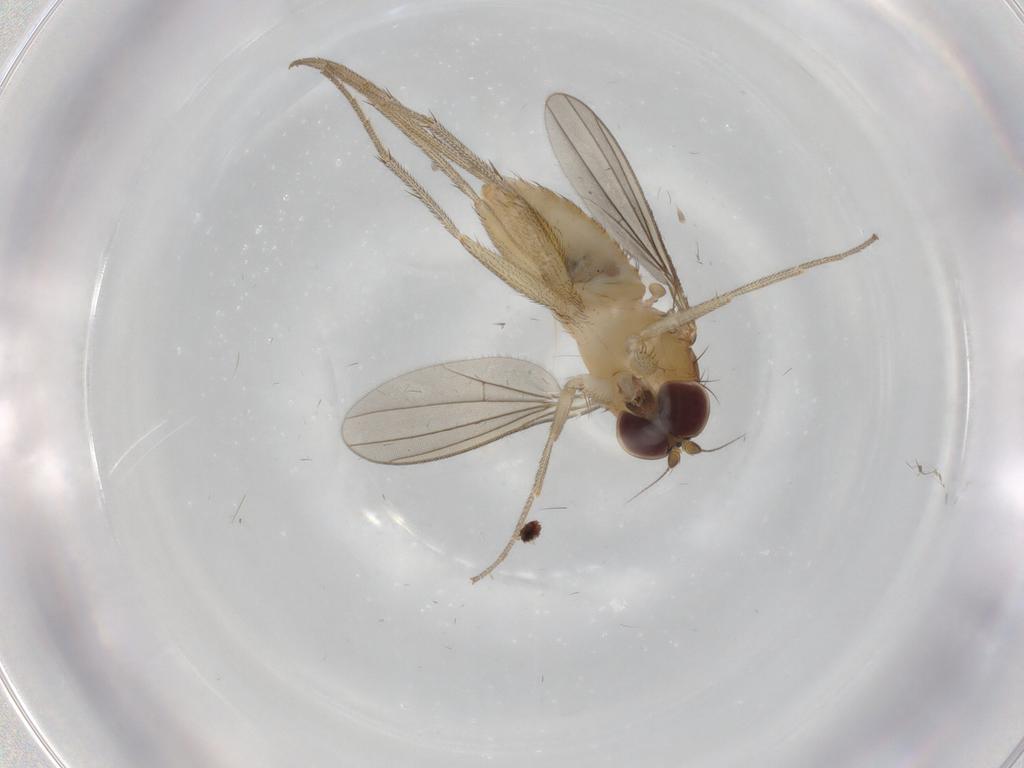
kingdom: Animalia
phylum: Arthropoda
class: Insecta
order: Diptera
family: Dolichopodidae
